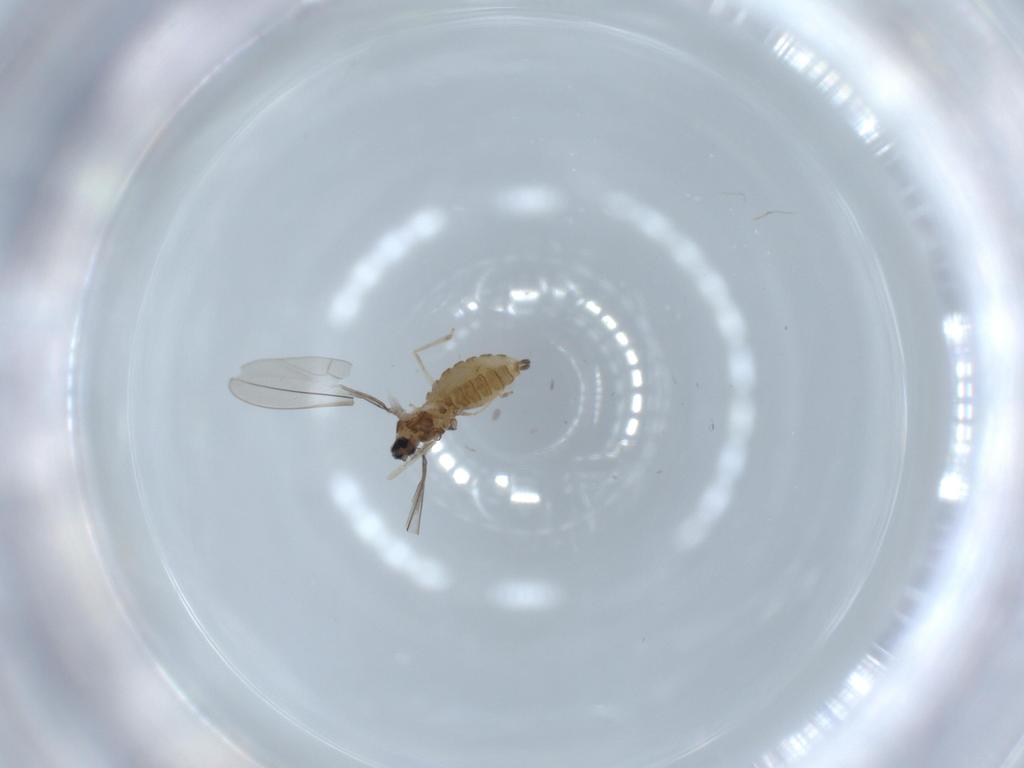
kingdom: Animalia
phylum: Arthropoda
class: Insecta
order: Diptera
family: Cecidomyiidae
